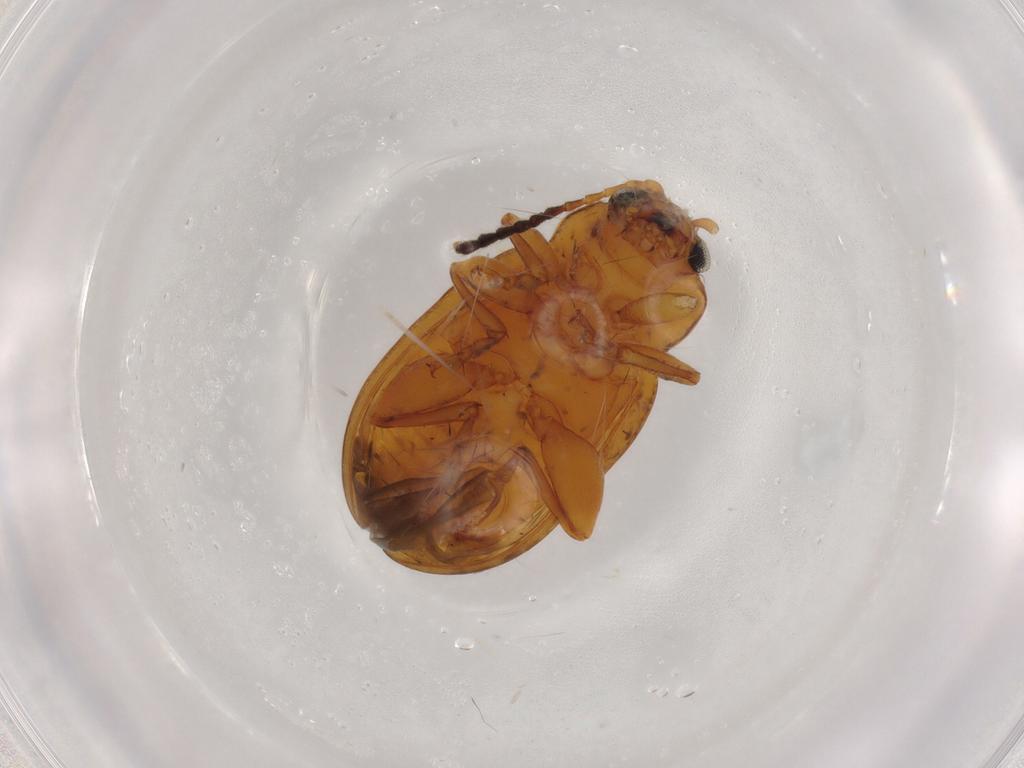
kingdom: Animalia
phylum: Arthropoda
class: Insecta
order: Coleoptera
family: Chrysomelidae
